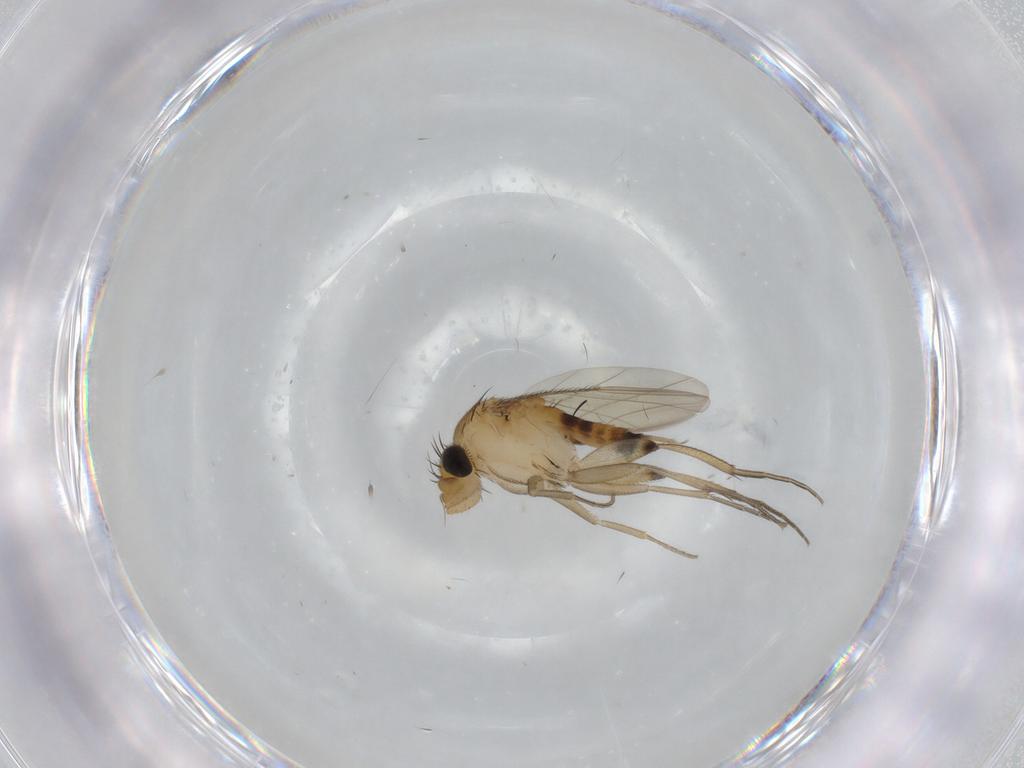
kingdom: Animalia
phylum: Arthropoda
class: Insecta
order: Diptera
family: Phoridae
